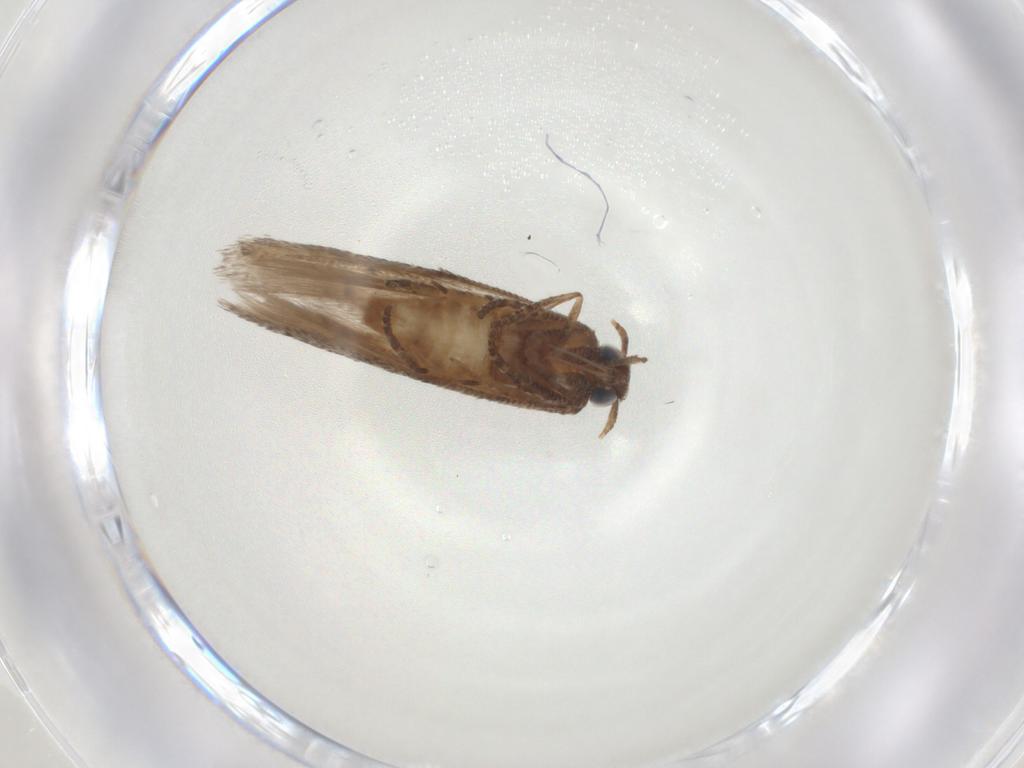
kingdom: Animalia
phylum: Arthropoda
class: Insecta
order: Lepidoptera
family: Gelechiidae
